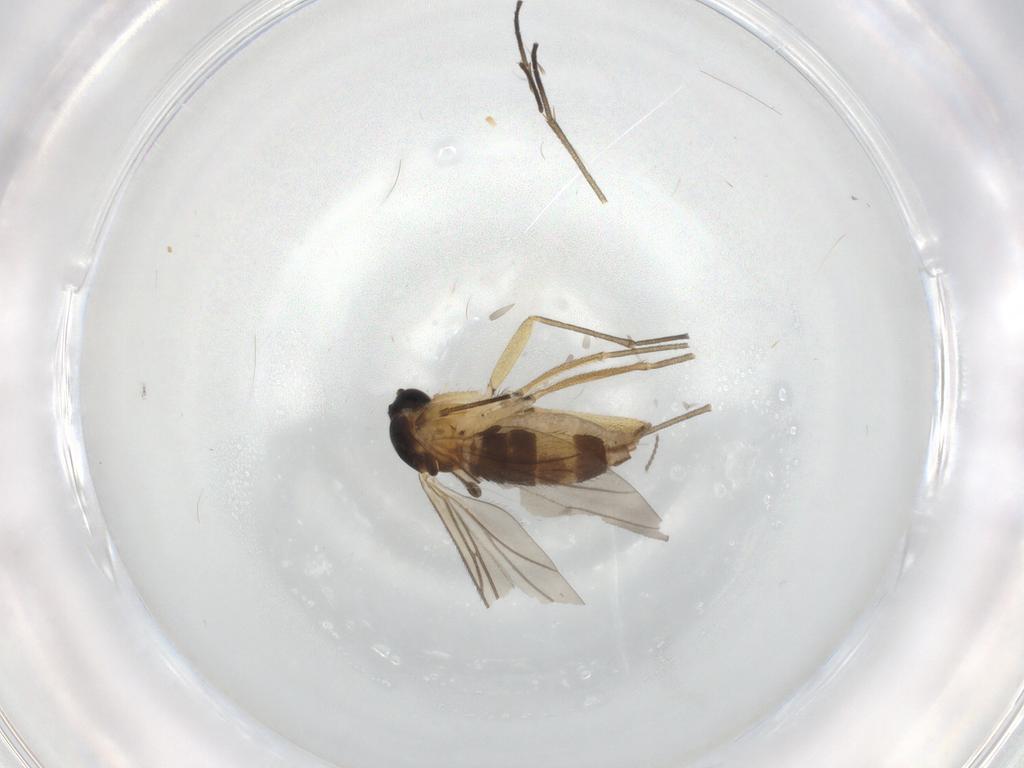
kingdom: Animalia
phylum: Arthropoda
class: Insecta
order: Diptera
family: Sciaridae
